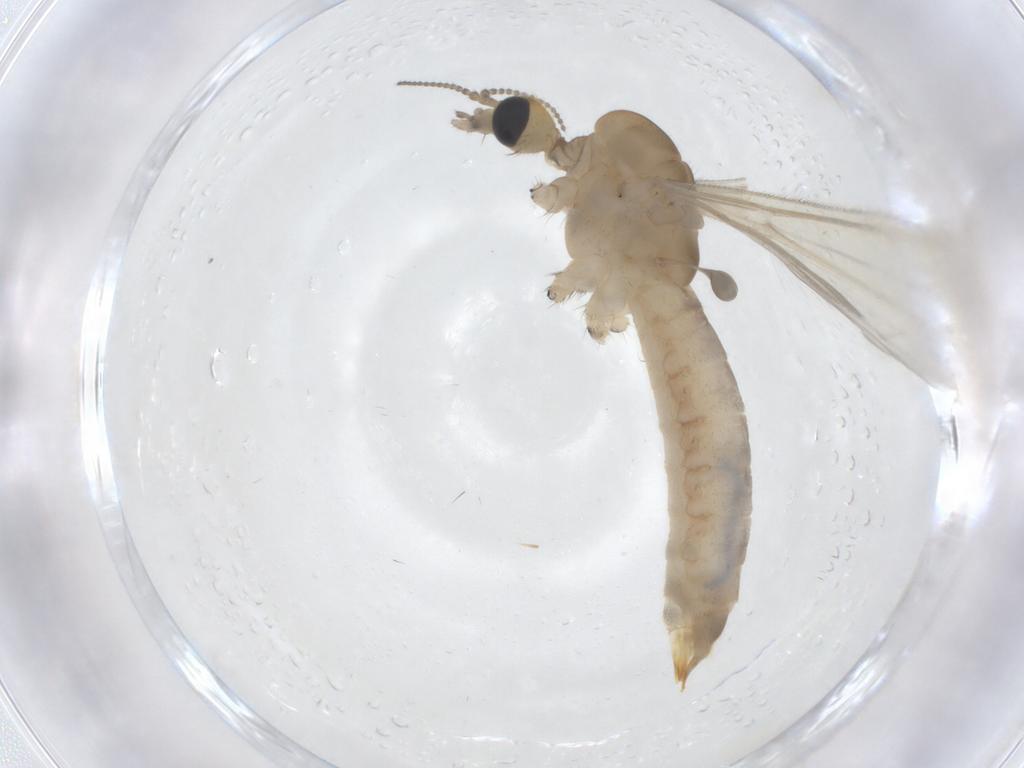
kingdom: Animalia
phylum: Arthropoda
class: Insecta
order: Diptera
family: Limoniidae
